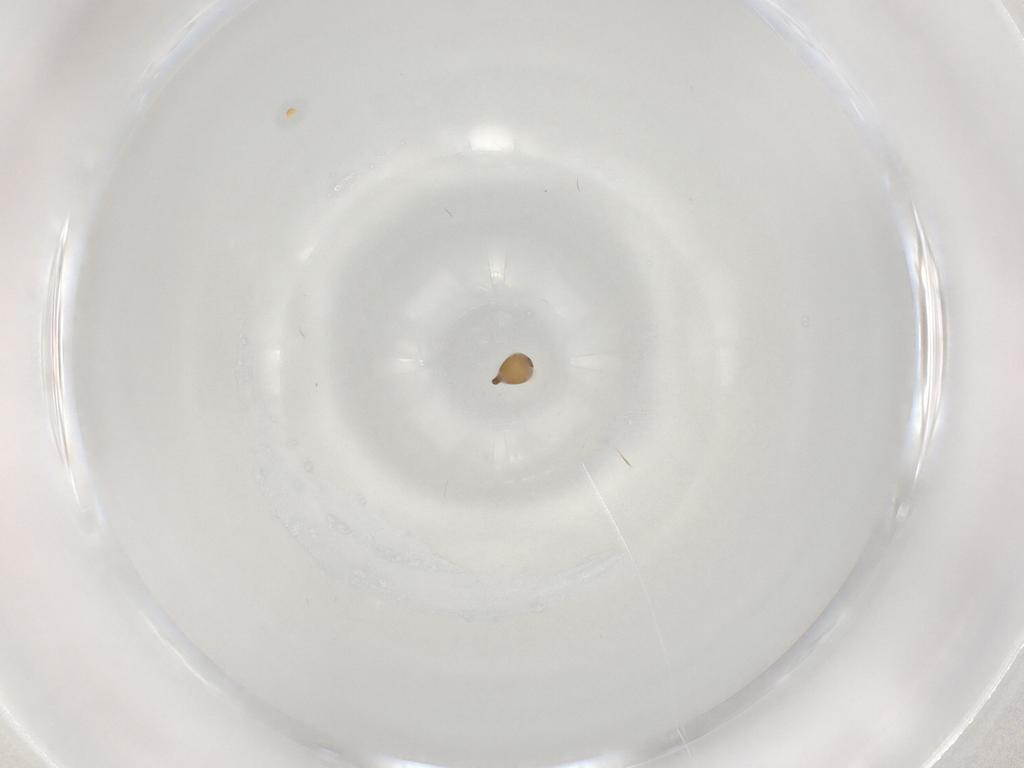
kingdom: Animalia
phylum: Arthropoda
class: Insecta
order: Plecoptera
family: Perlidae
